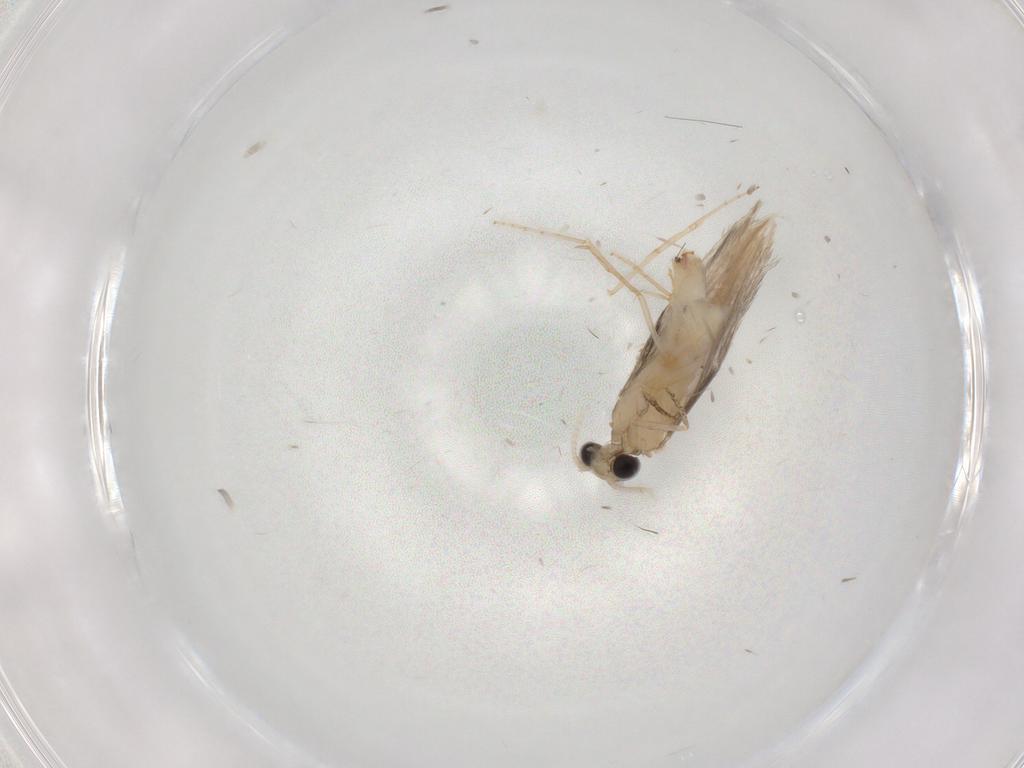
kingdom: Animalia
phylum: Arthropoda
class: Insecta
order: Trichoptera
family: Hydroptilidae
